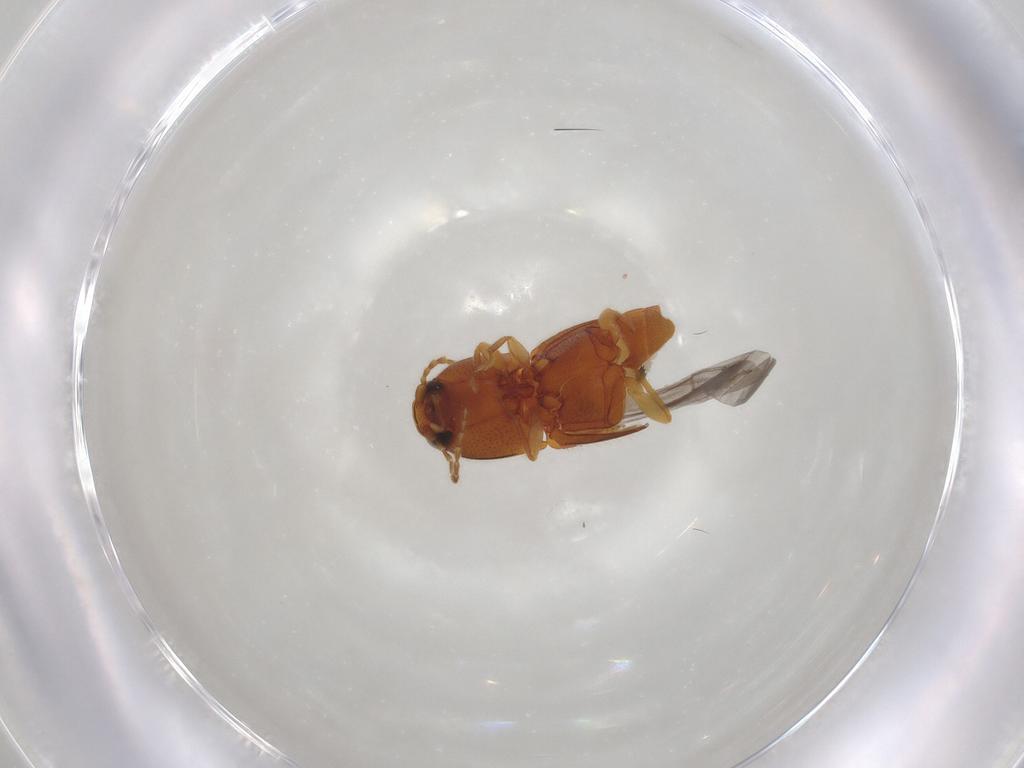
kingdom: Animalia
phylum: Arthropoda
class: Insecta
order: Coleoptera
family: Elateridae
